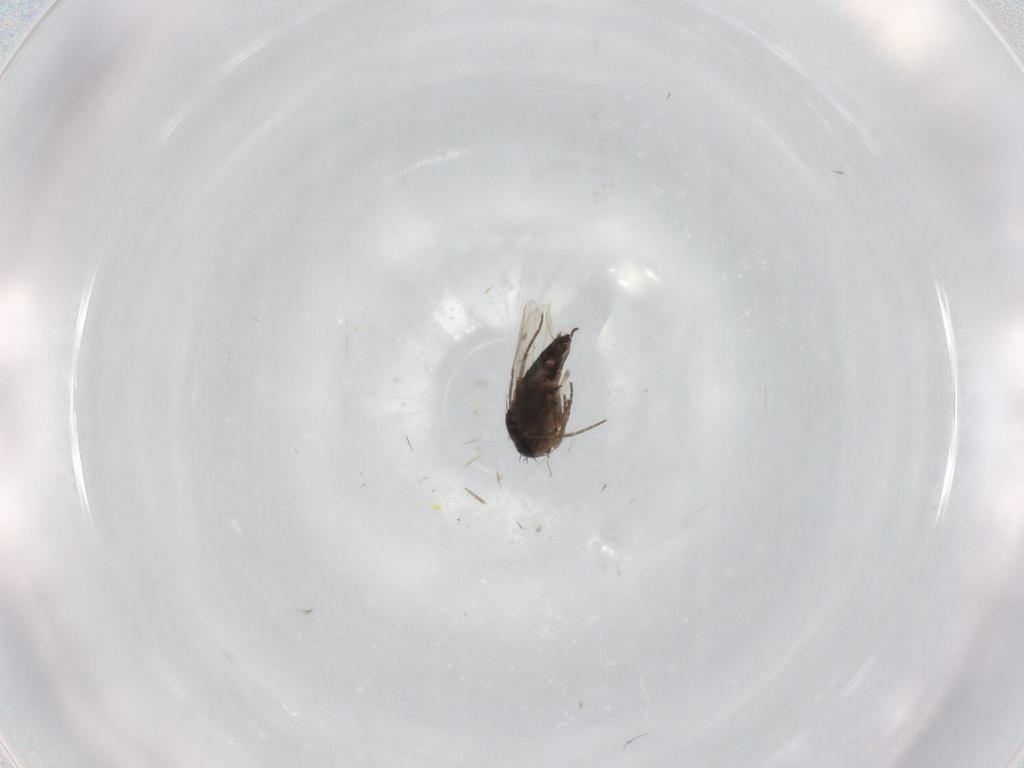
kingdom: Animalia
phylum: Arthropoda
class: Insecta
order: Diptera
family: Phoridae
